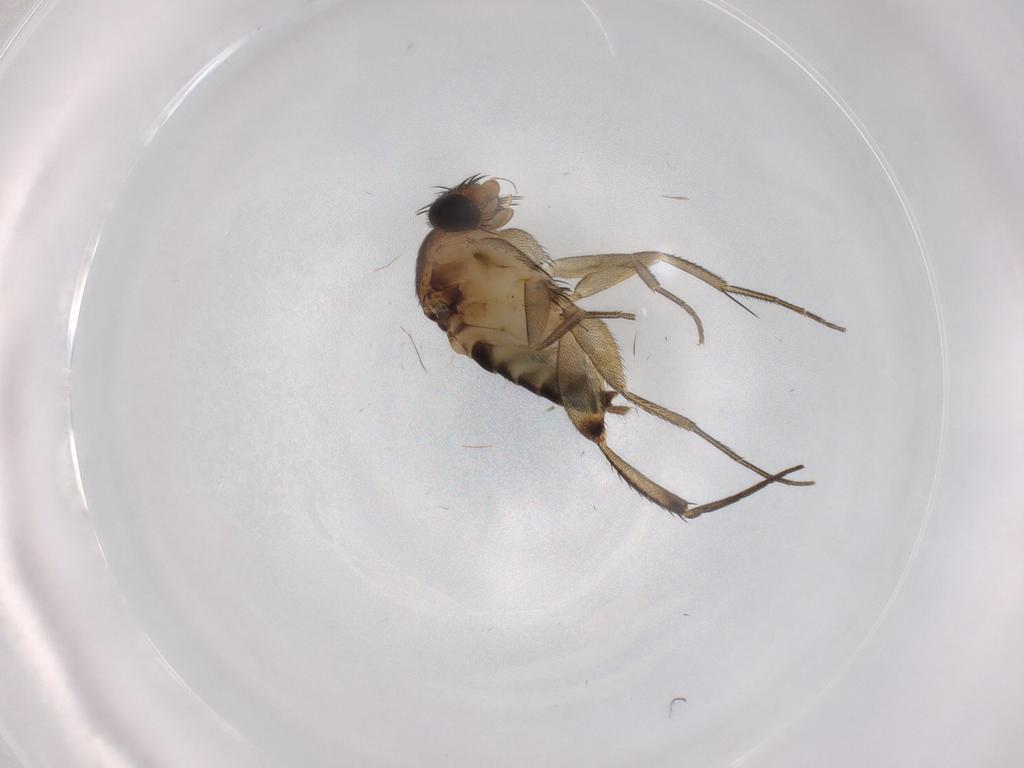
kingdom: Animalia
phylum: Arthropoda
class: Insecta
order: Diptera
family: Phoridae
